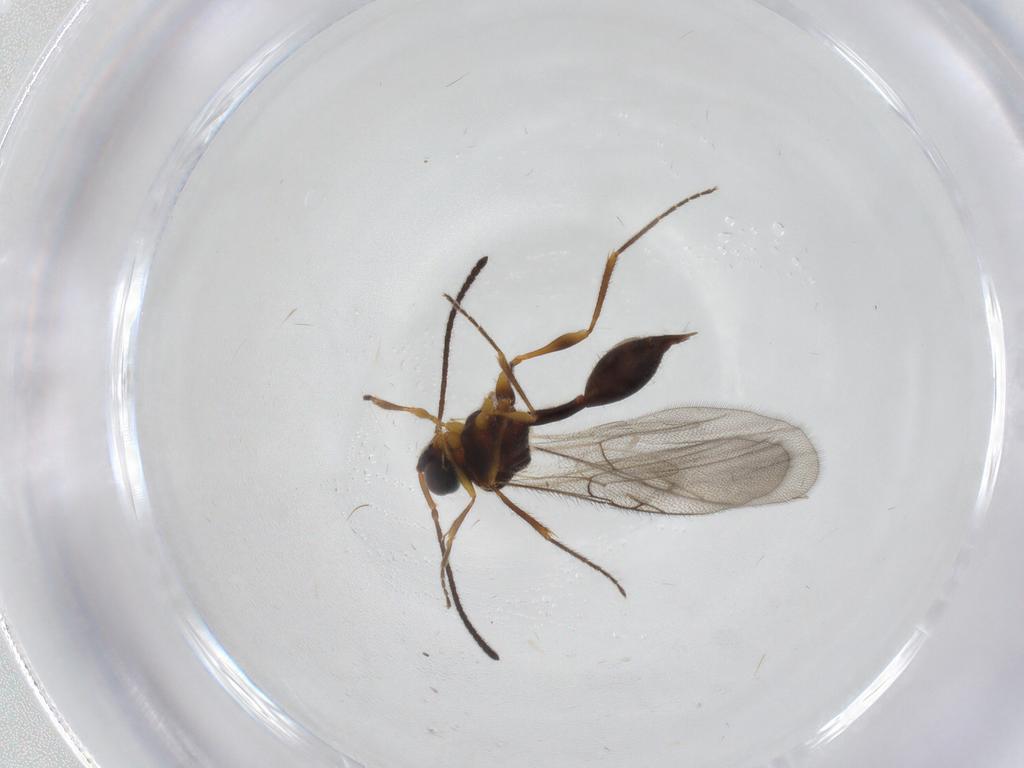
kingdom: Animalia
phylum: Arthropoda
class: Insecta
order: Hymenoptera
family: Diapriidae
